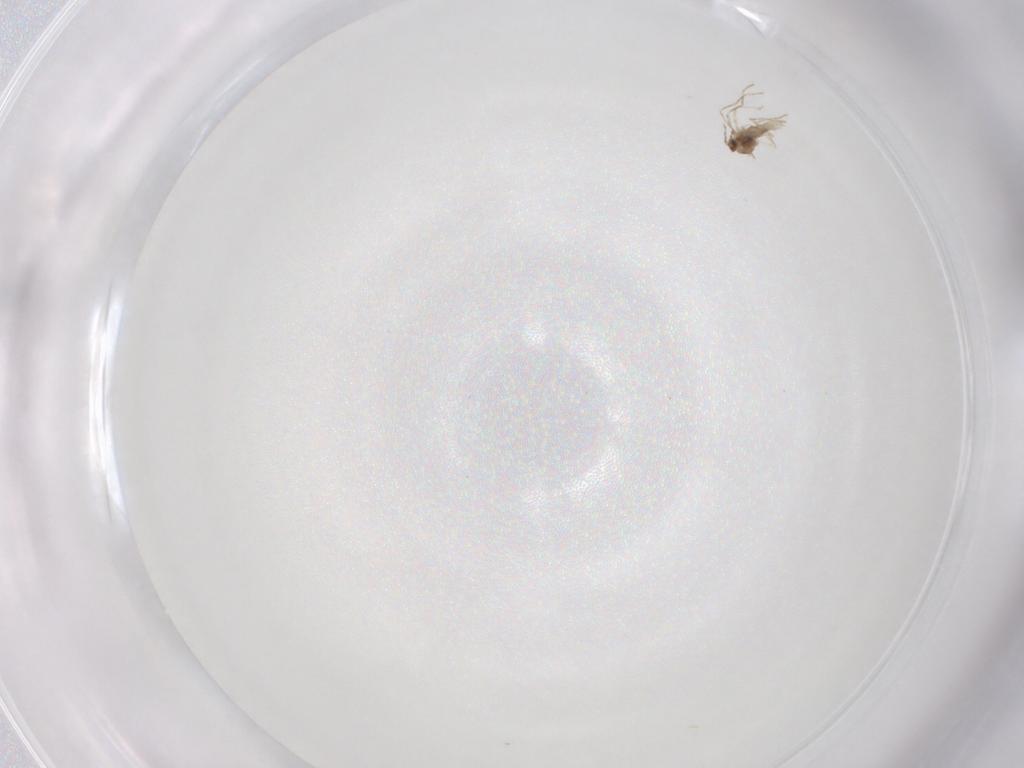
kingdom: Animalia
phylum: Arthropoda
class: Insecta
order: Diptera
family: Cecidomyiidae
